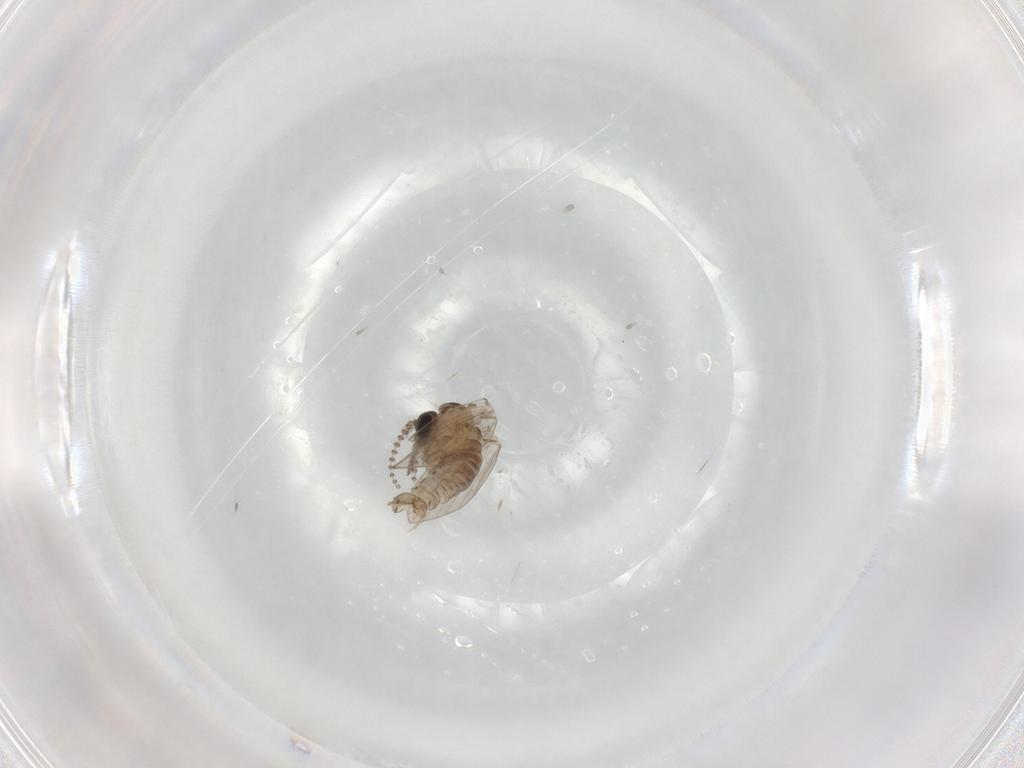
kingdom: Animalia
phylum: Arthropoda
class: Insecta
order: Diptera
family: Psychodidae
